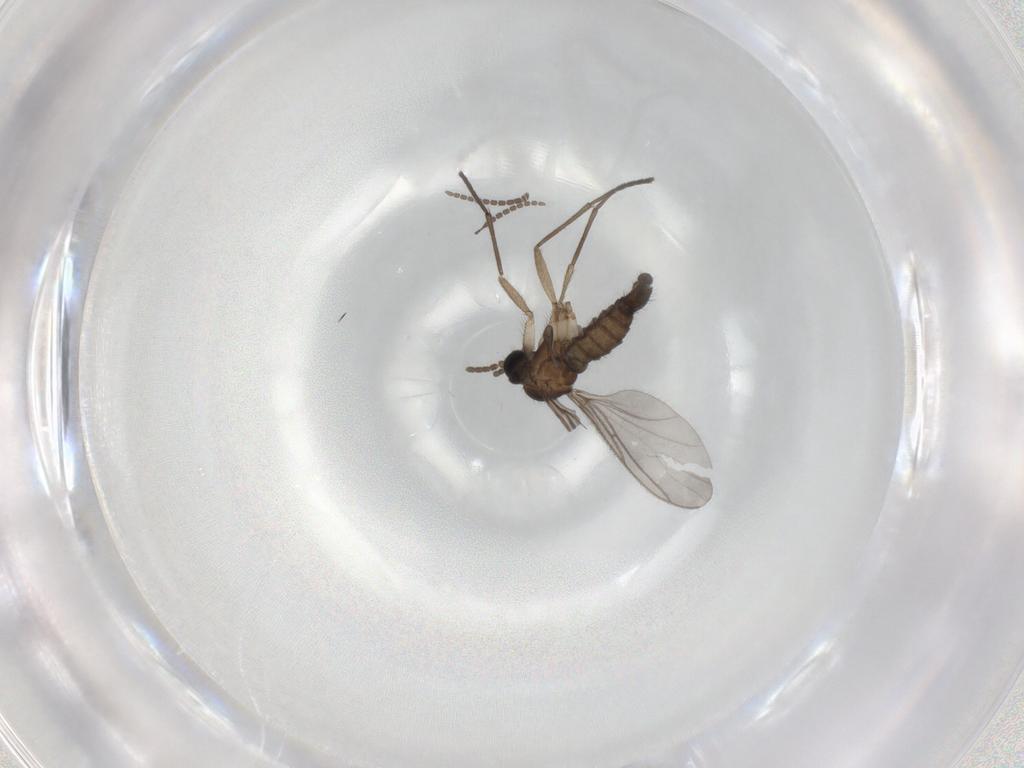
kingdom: Animalia
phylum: Arthropoda
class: Insecta
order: Diptera
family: Sciaridae
